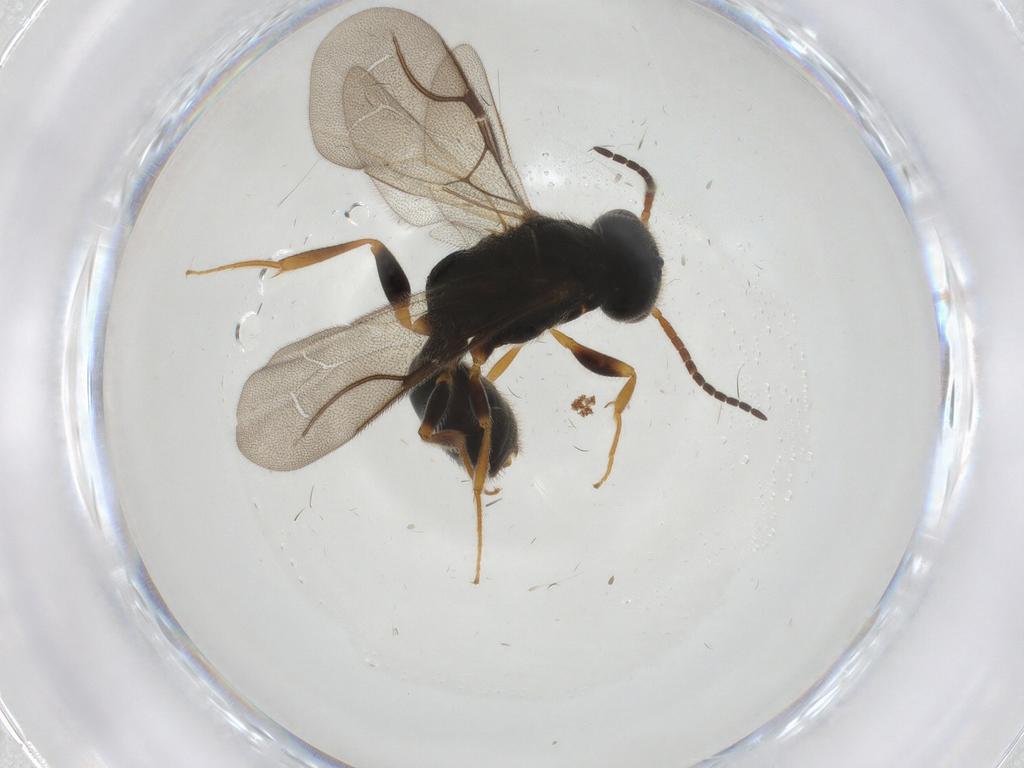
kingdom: Animalia
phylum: Arthropoda
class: Insecta
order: Hymenoptera
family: Bethylidae
